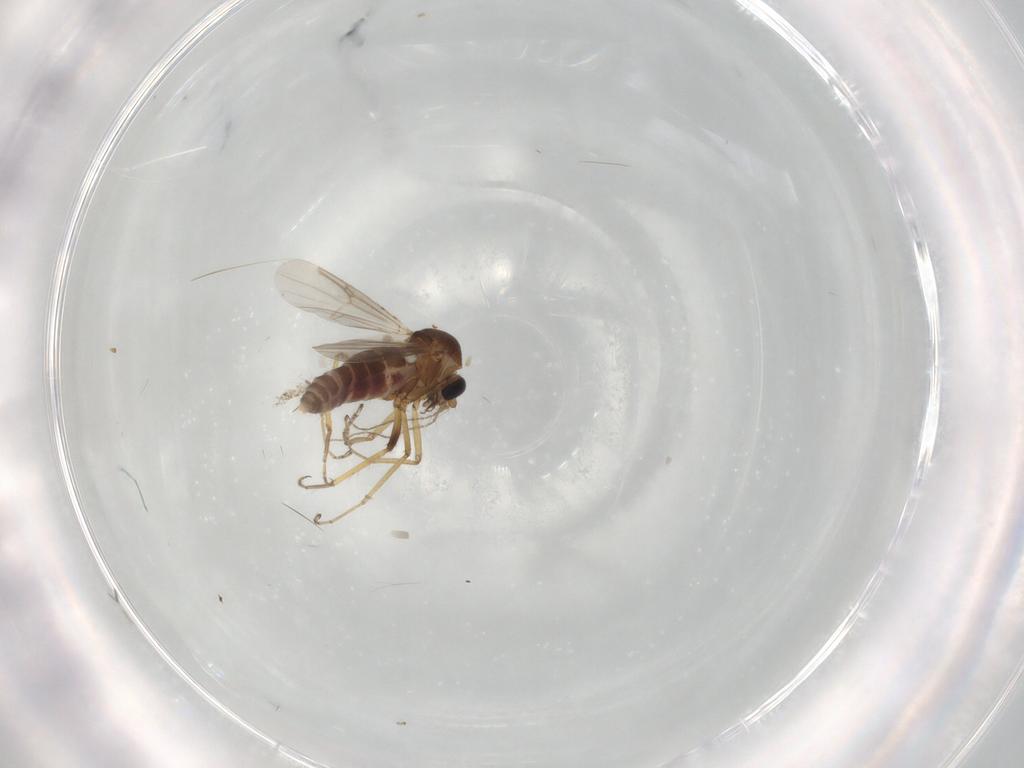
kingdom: Animalia
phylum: Arthropoda
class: Insecta
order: Diptera
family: Ceratopogonidae
